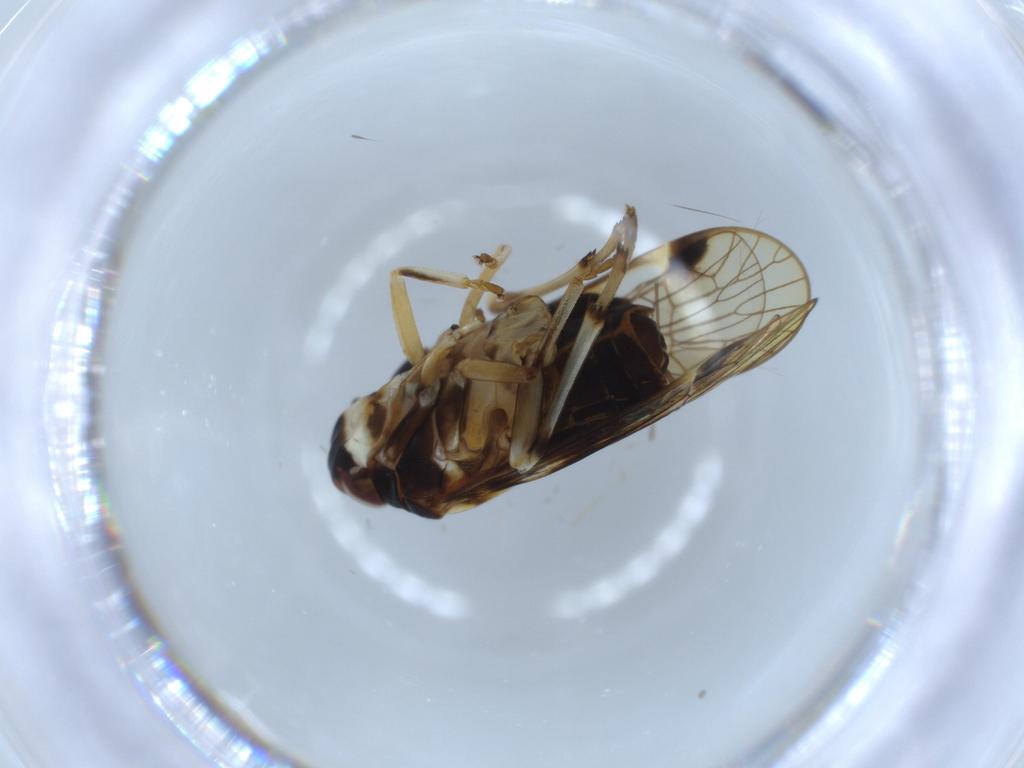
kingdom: Animalia
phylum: Arthropoda
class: Insecta
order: Hemiptera
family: Kinnaridae
